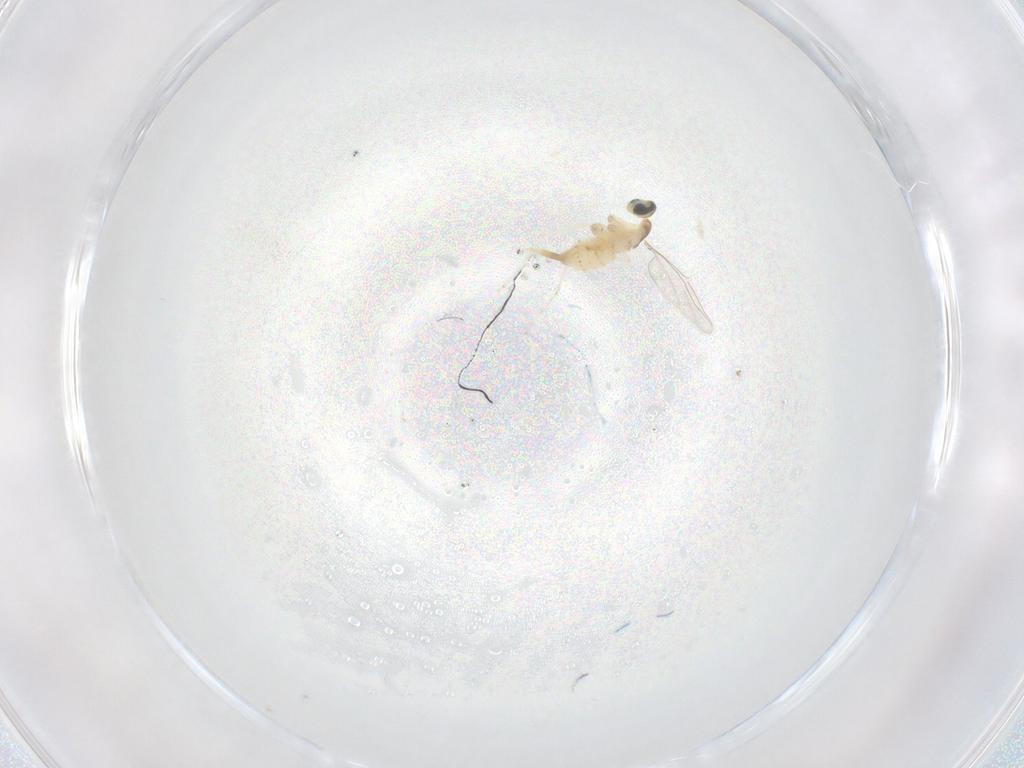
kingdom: Animalia
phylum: Arthropoda
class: Insecta
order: Diptera
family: Cecidomyiidae
